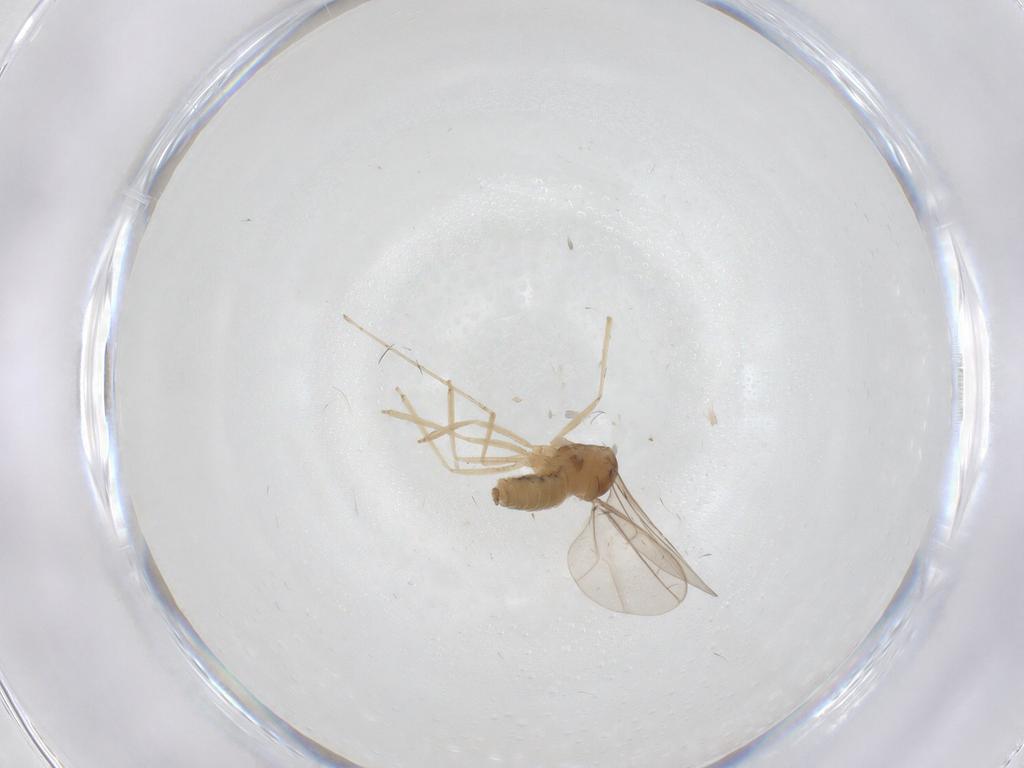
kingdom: Animalia
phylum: Arthropoda
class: Insecta
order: Diptera
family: Cecidomyiidae
